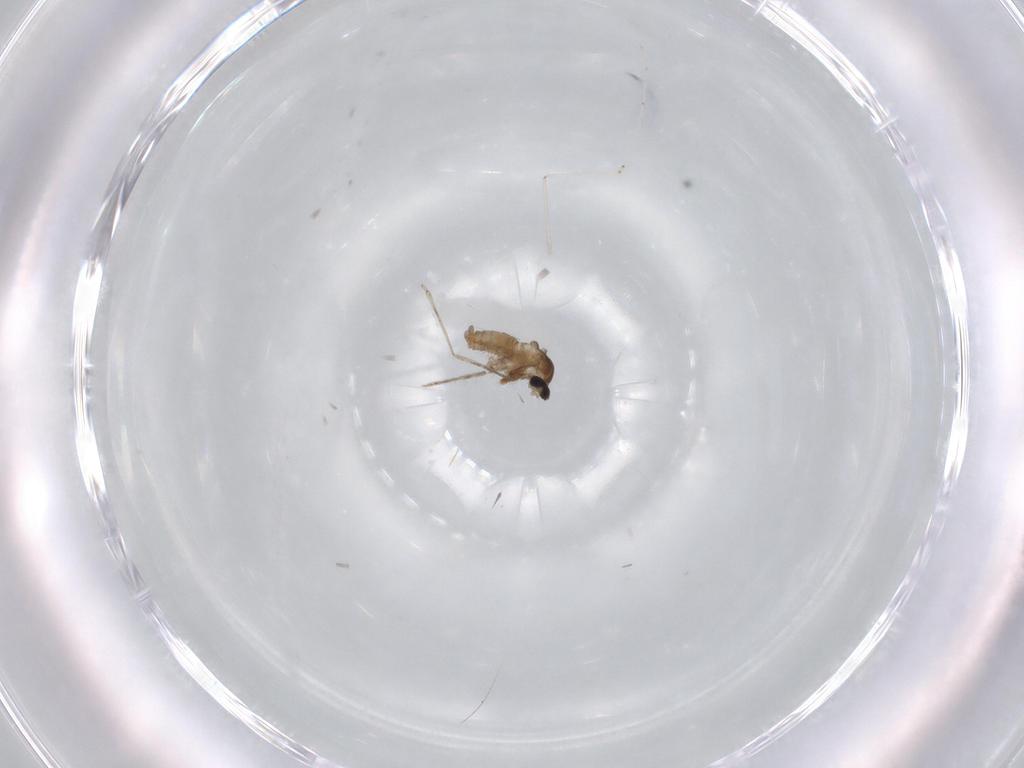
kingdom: Animalia
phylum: Arthropoda
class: Insecta
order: Diptera
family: Cecidomyiidae
